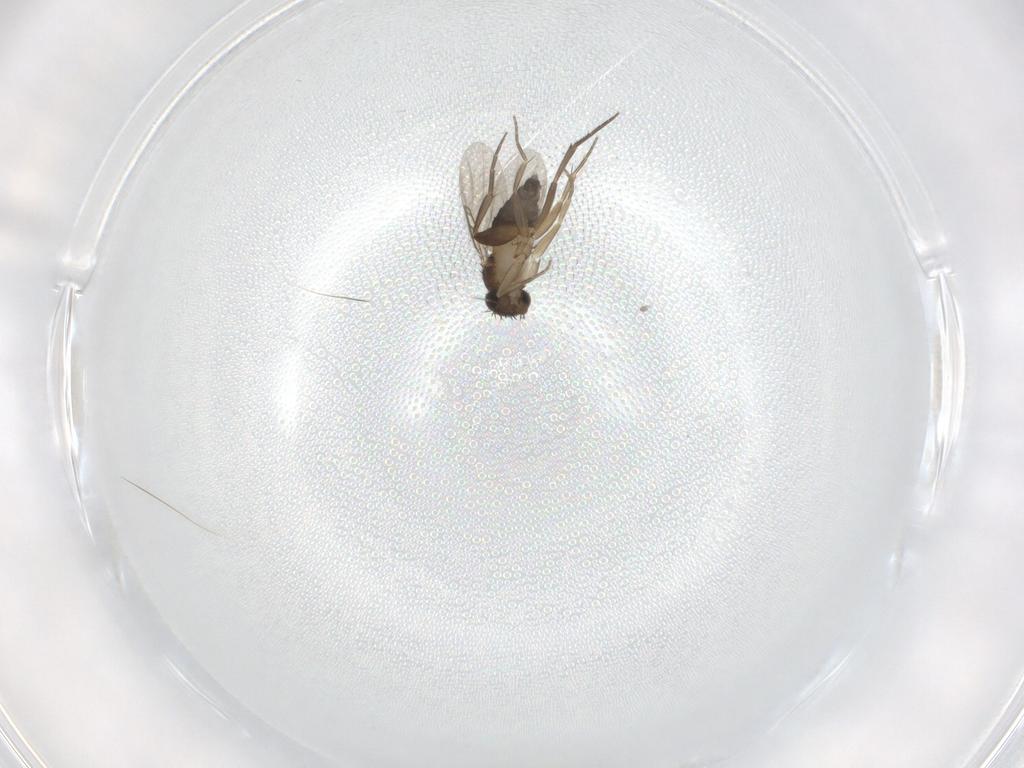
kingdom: Animalia
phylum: Arthropoda
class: Insecta
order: Diptera
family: Phoridae
